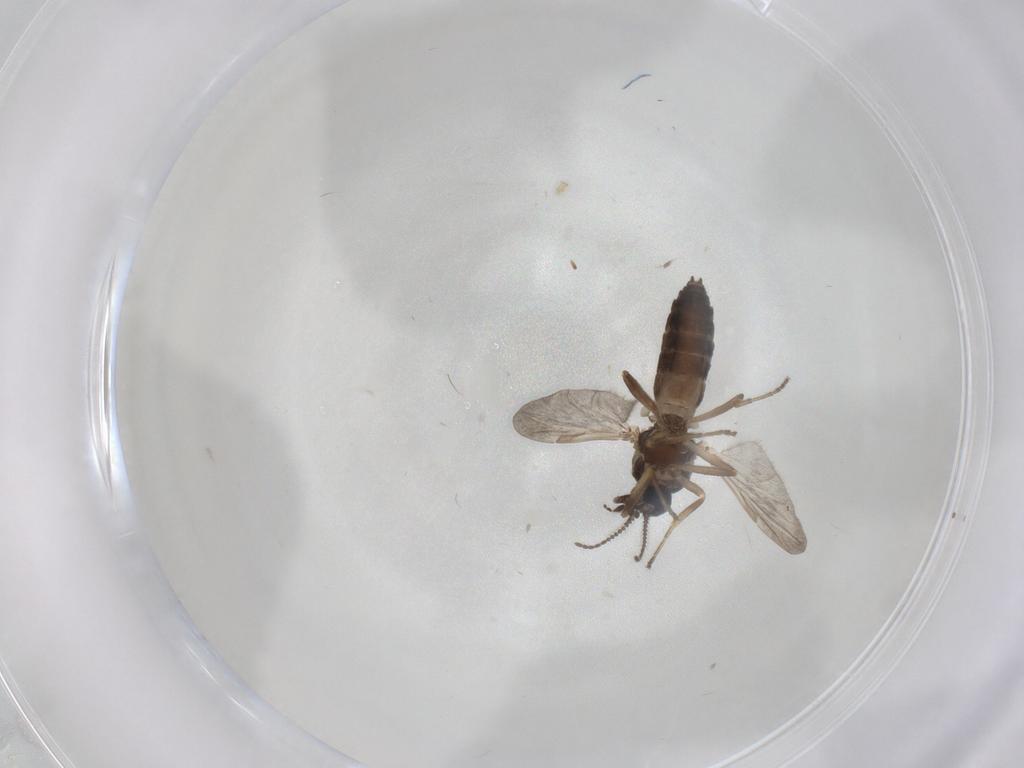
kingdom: Animalia
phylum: Arthropoda
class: Insecta
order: Diptera
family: Ceratopogonidae
